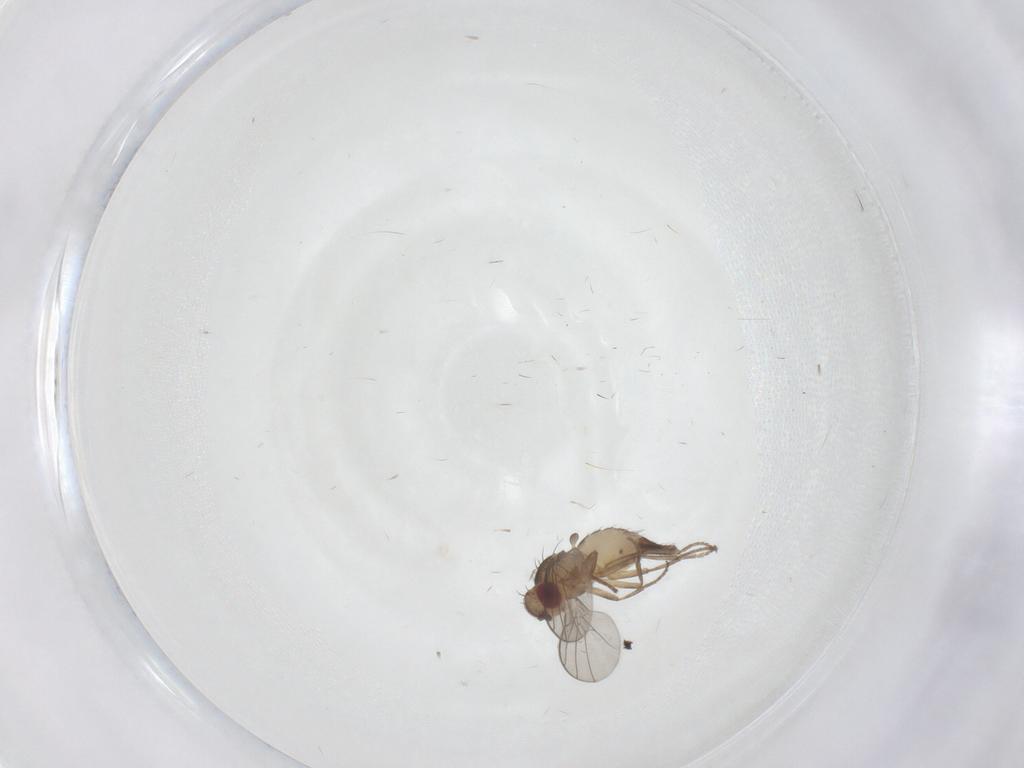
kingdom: Animalia
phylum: Arthropoda
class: Insecta
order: Diptera
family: Agromyzidae
